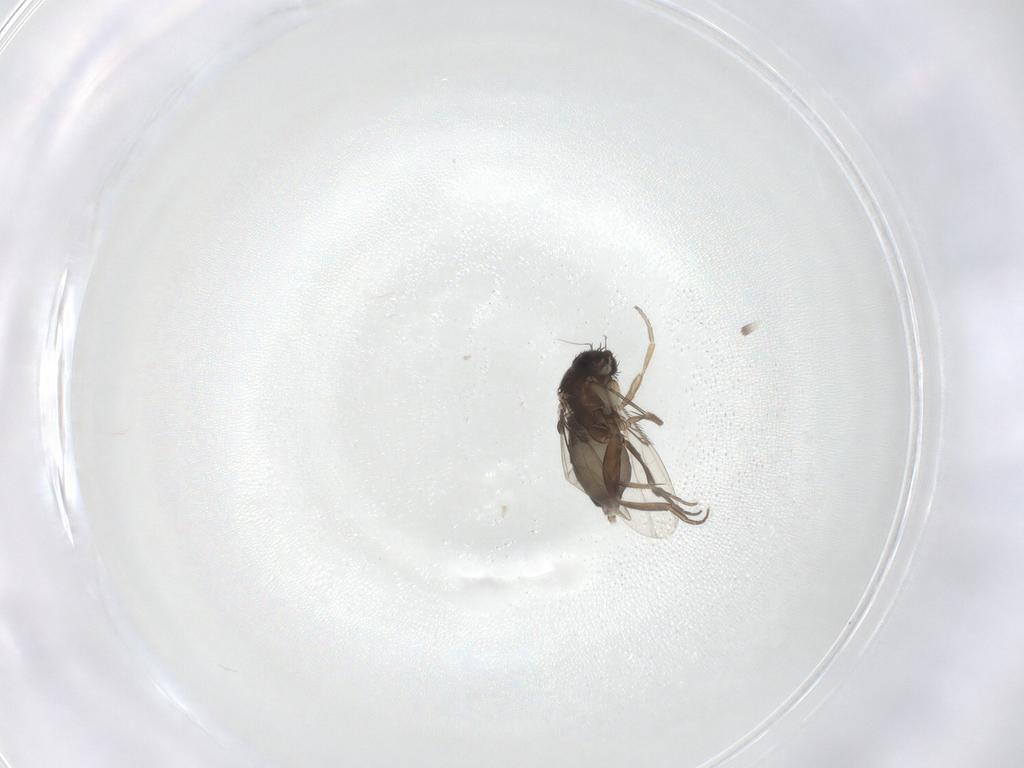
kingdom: Animalia
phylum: Arthropoda
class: Insecta
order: Diptera
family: Phoridae
